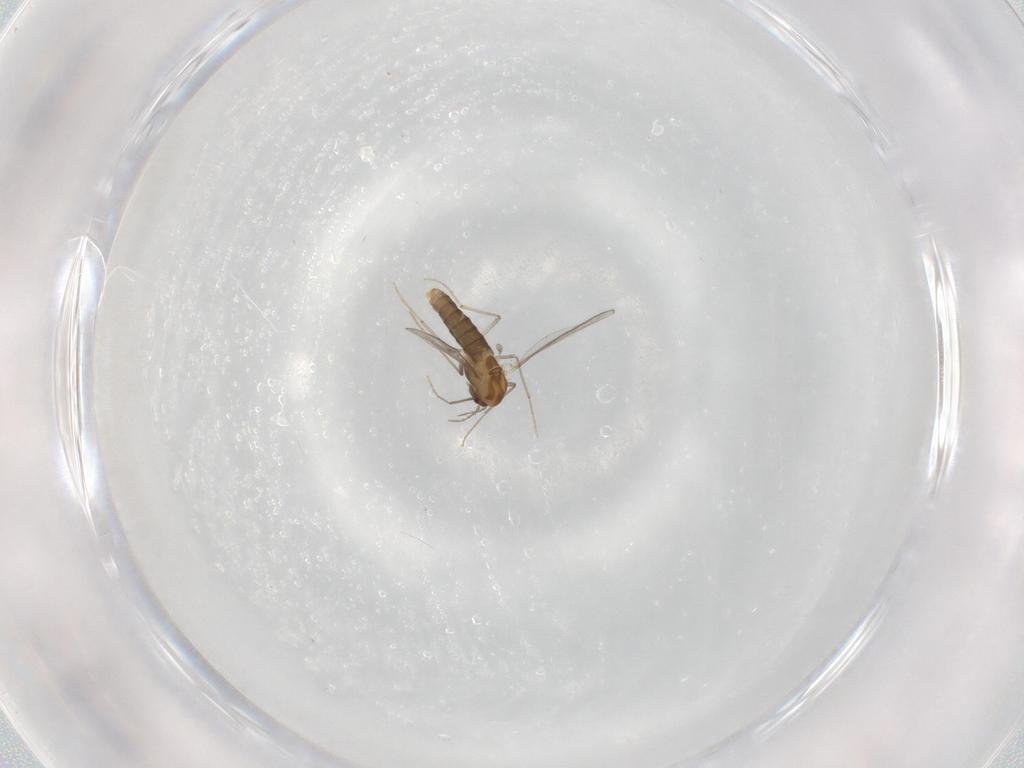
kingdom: Animalia
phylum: Arthropoda
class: Insecta
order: Diptera
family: Chironomidae
